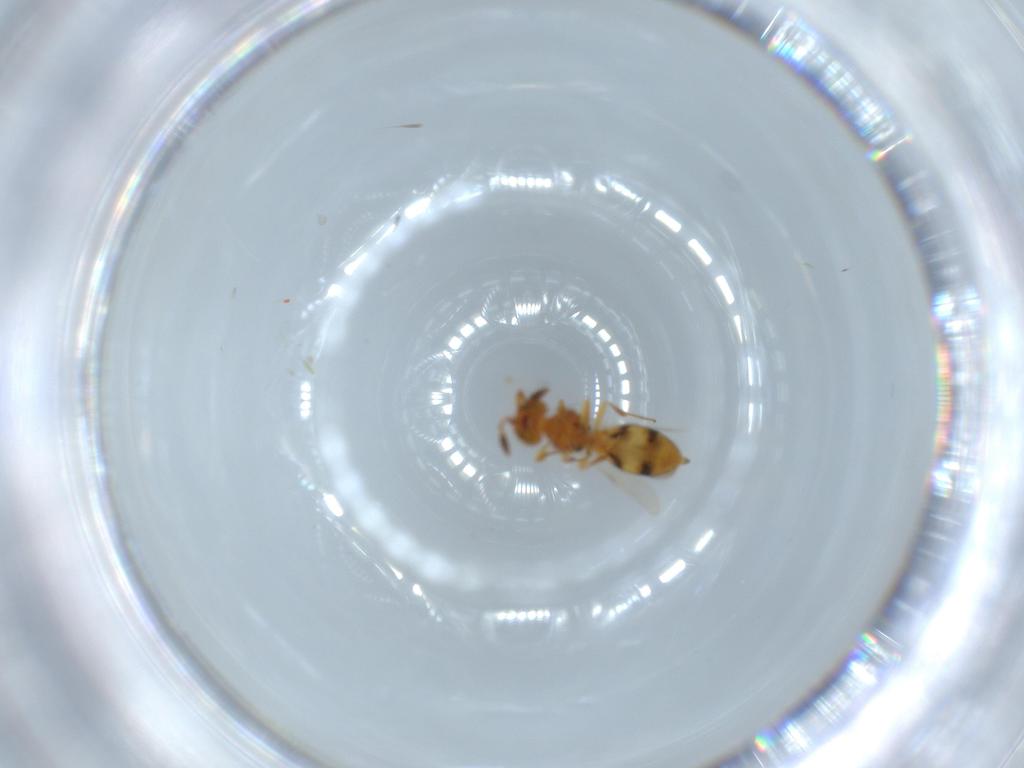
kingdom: Animalia
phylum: Arthropoda
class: Insecta
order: Hymenoptera
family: Scelionidae
